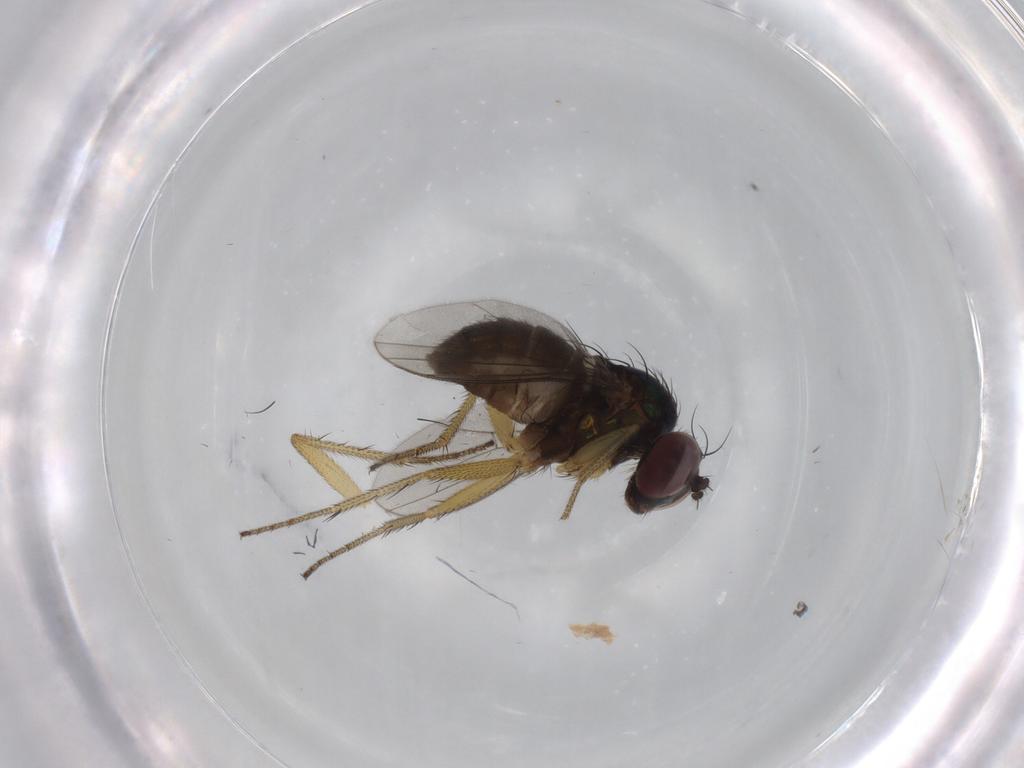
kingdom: Animalia
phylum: Arthropoda
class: Insecta
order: Diptera
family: Dolichopodidae
